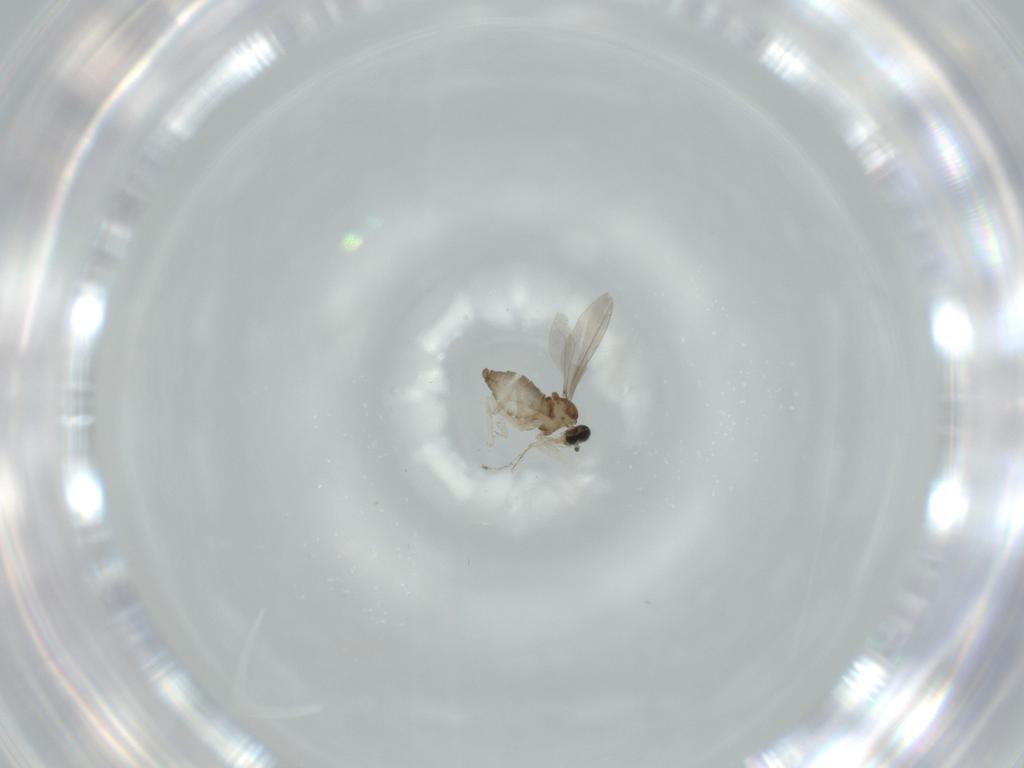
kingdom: Animalia
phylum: Arthropoda
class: Insecta
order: Diptera
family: Cecidomyiidae
